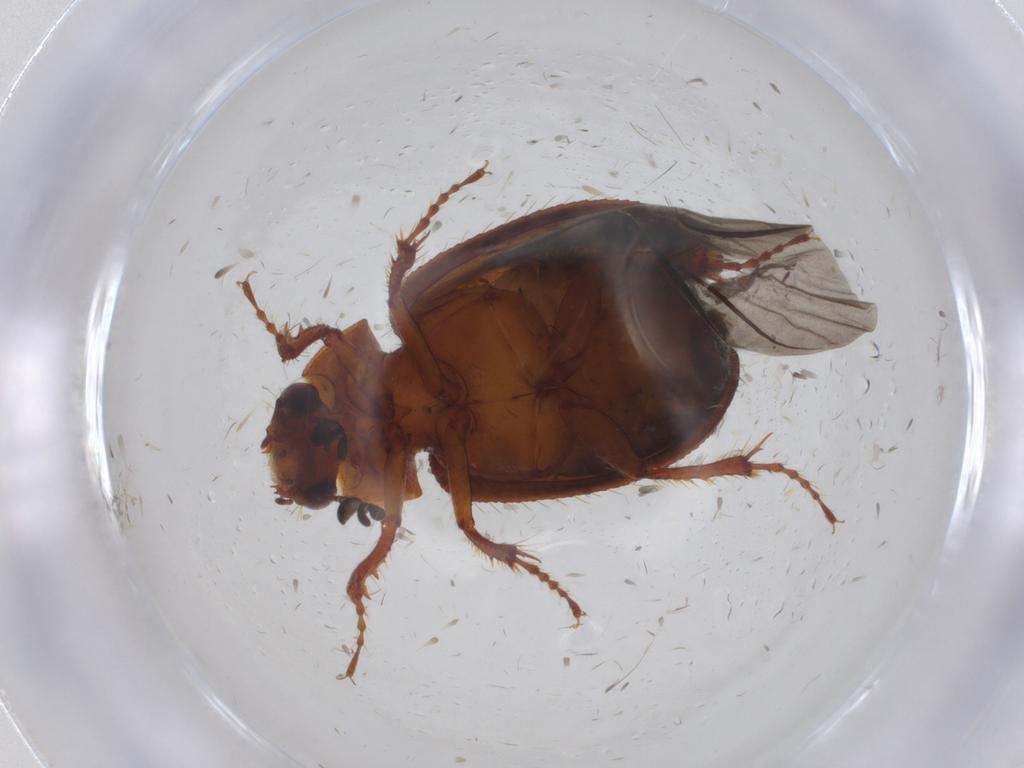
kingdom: Animalia
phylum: Arthropoda
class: Insecta
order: Coleoptera
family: Hybosoridae
